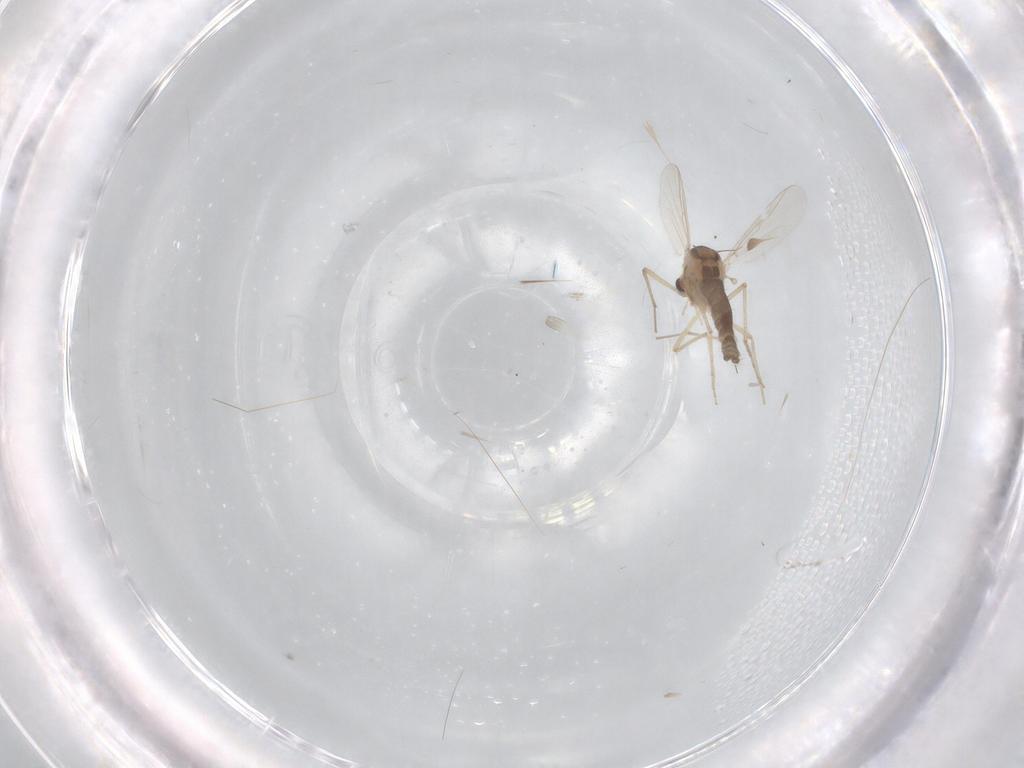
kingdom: Animalia
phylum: Arthropoda
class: Insecta
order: Diptera
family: Chironomidae
